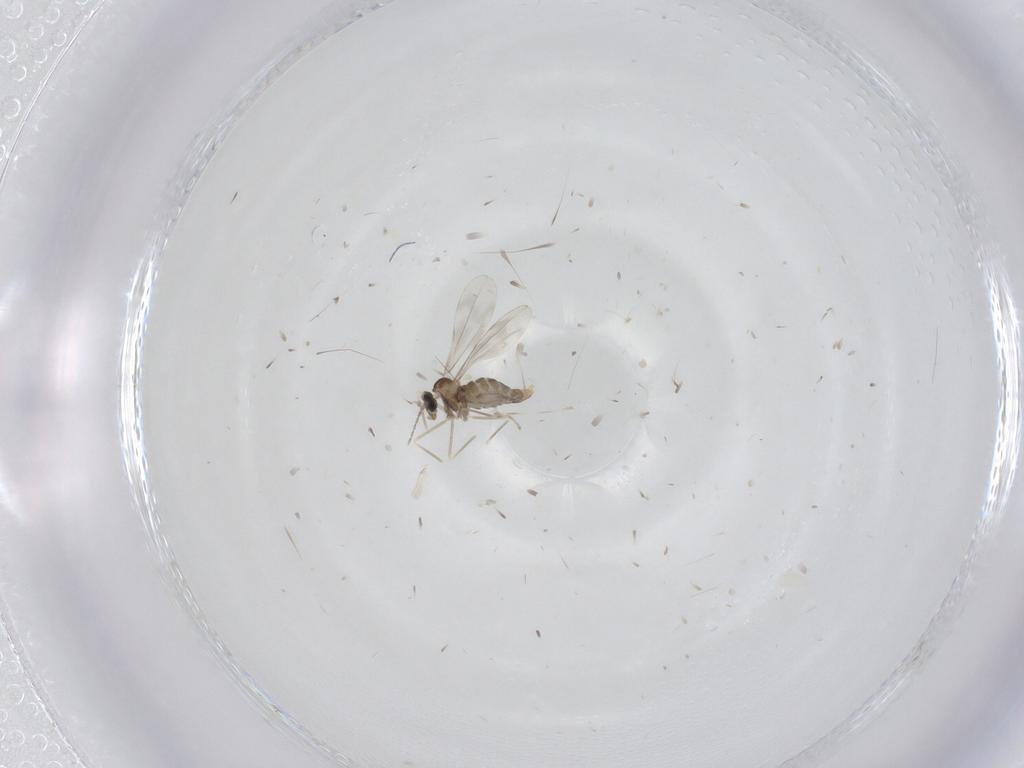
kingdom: Animalia
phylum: Arthropoda
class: Insecta
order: Diptera
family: Cecidomyiidae
